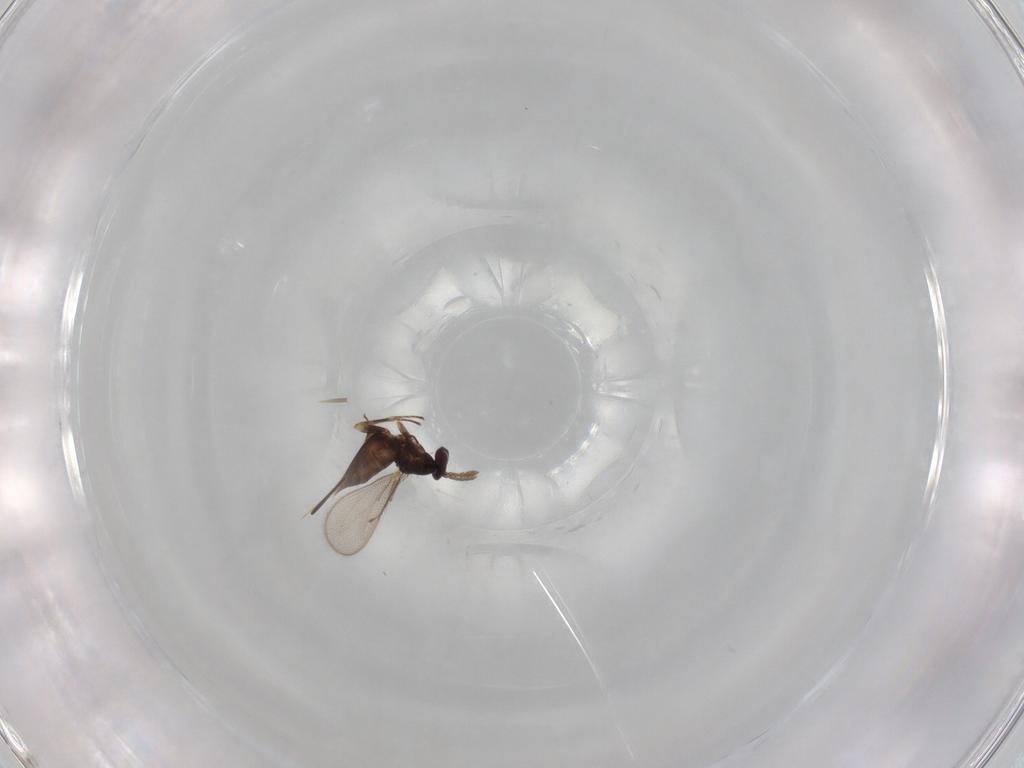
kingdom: Animalia
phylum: Arthropoda
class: Insecta
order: Hymenoptera
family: Eulophidae
